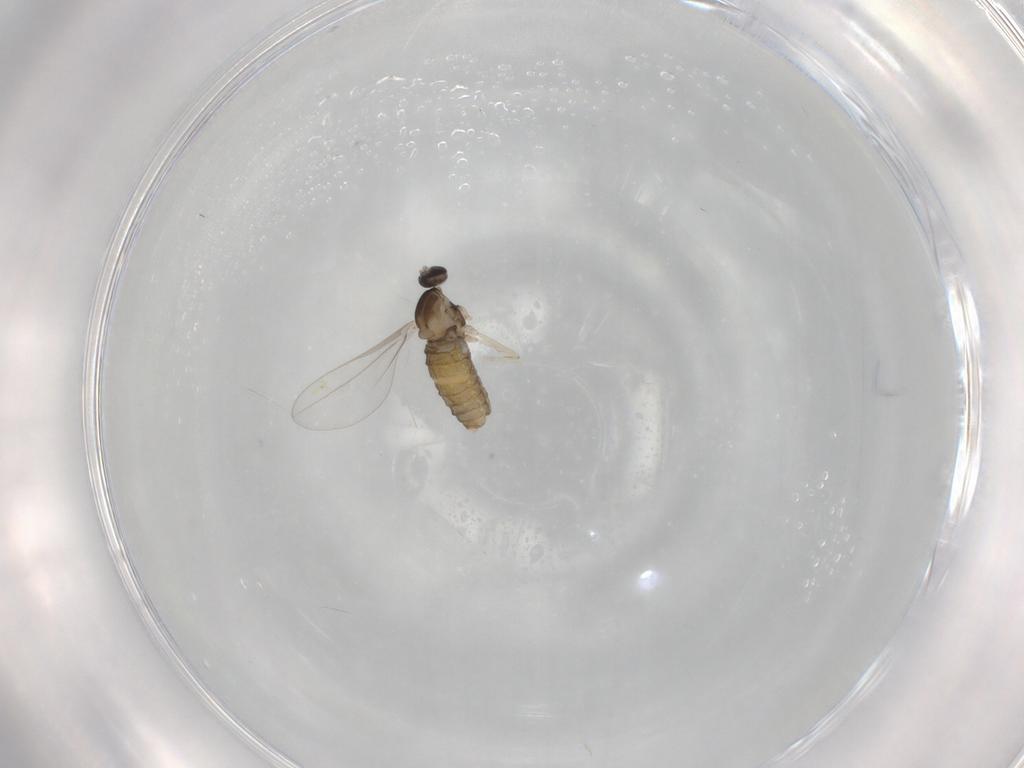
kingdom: Animalia
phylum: Arthropoda
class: Insecta
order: Diptera
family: Cecidomyiidae
